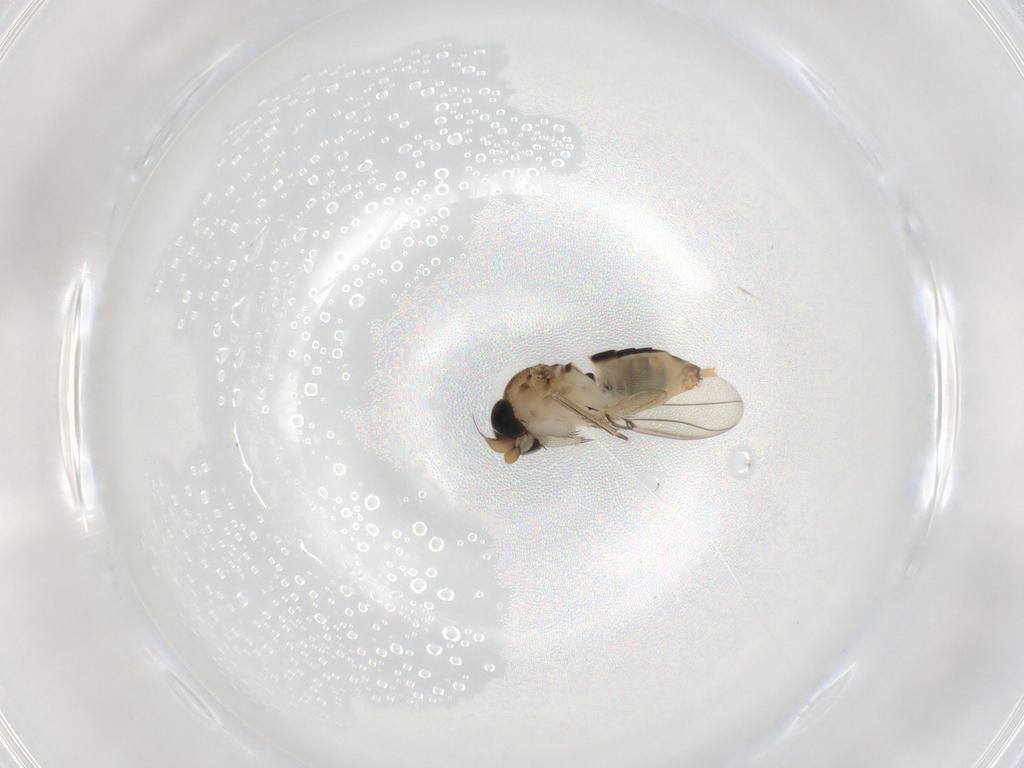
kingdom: Animalia
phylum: Arthropoda
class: Insecta
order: Diptera
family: Phoridae
